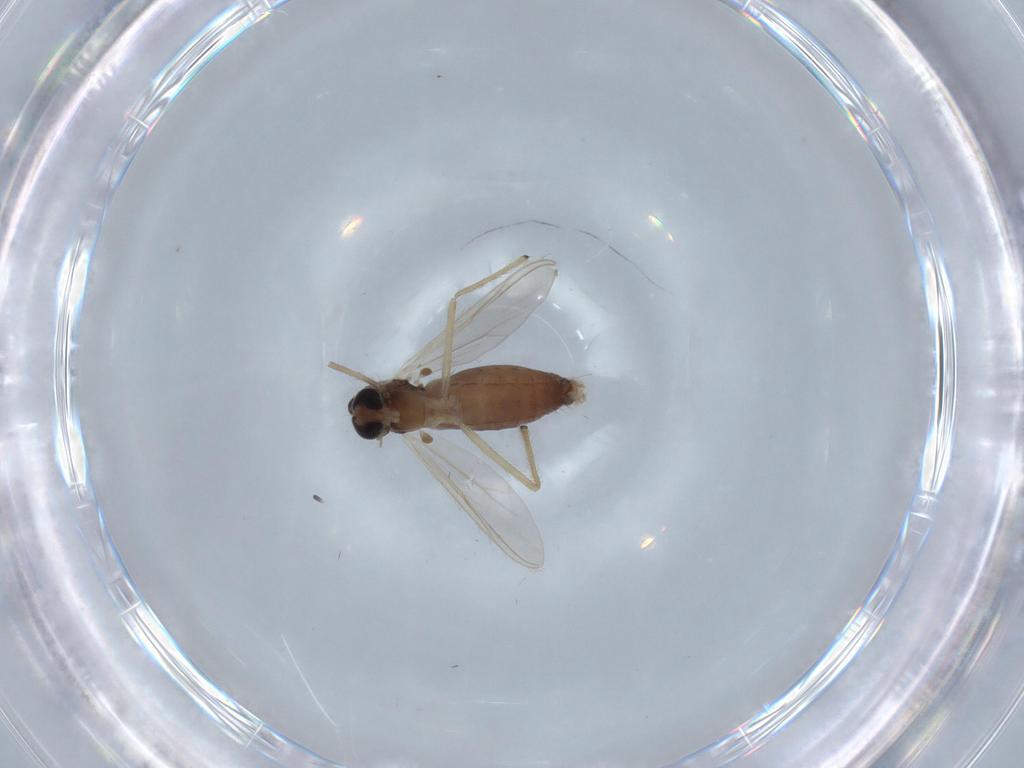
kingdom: Animalia
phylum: Arthropoda
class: Insecta
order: Diptera
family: Chironomidae
